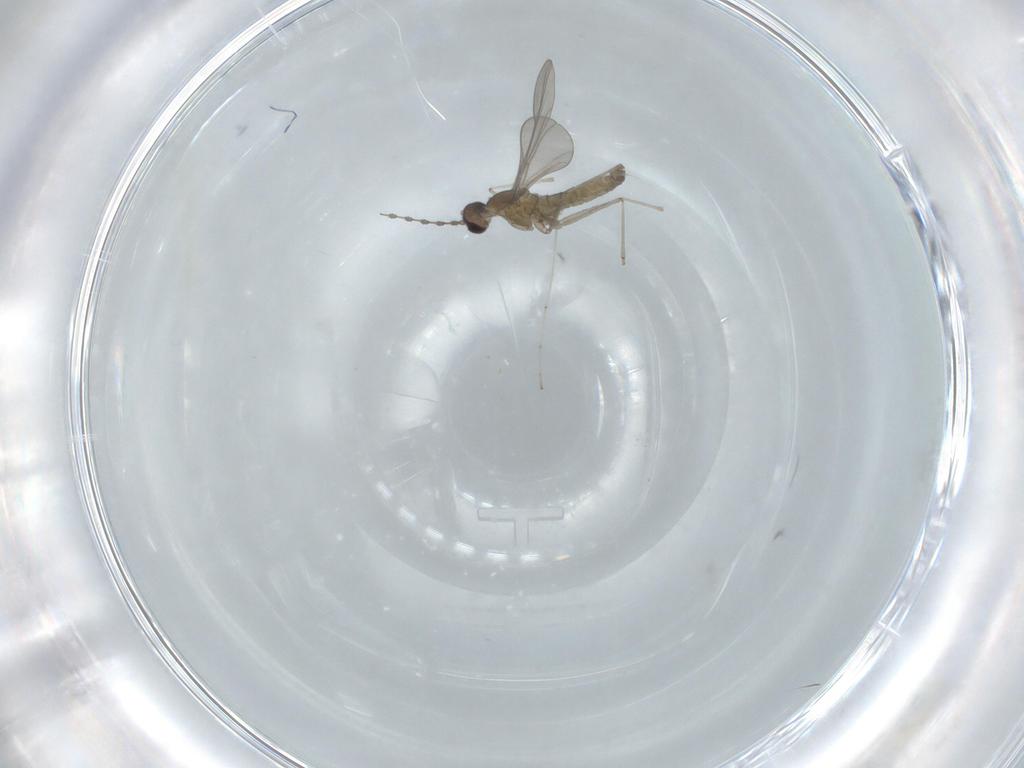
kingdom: Animalia
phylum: Arthropoda
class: Insecta
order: Diptera
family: Cecidomyiidae
